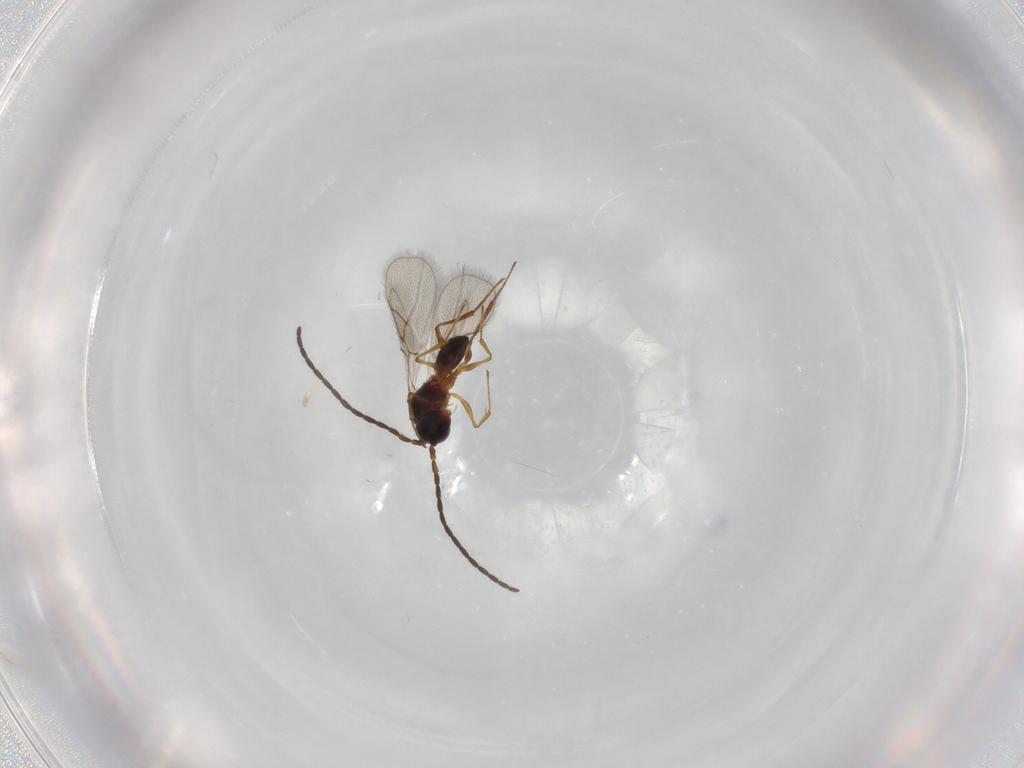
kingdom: Animalia
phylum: Arthropoda
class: Insecta
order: Hymenoptera
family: Figitidae
